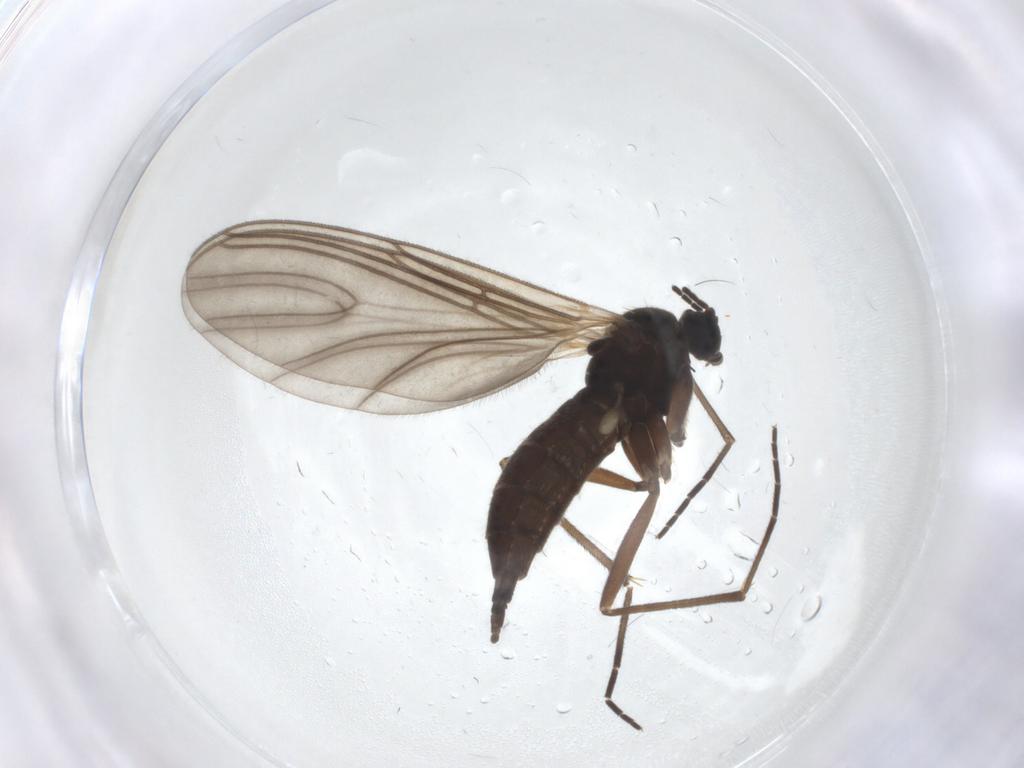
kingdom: Animalia
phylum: Arthropoda
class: Insecta
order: Diptera
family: Sciaridae
